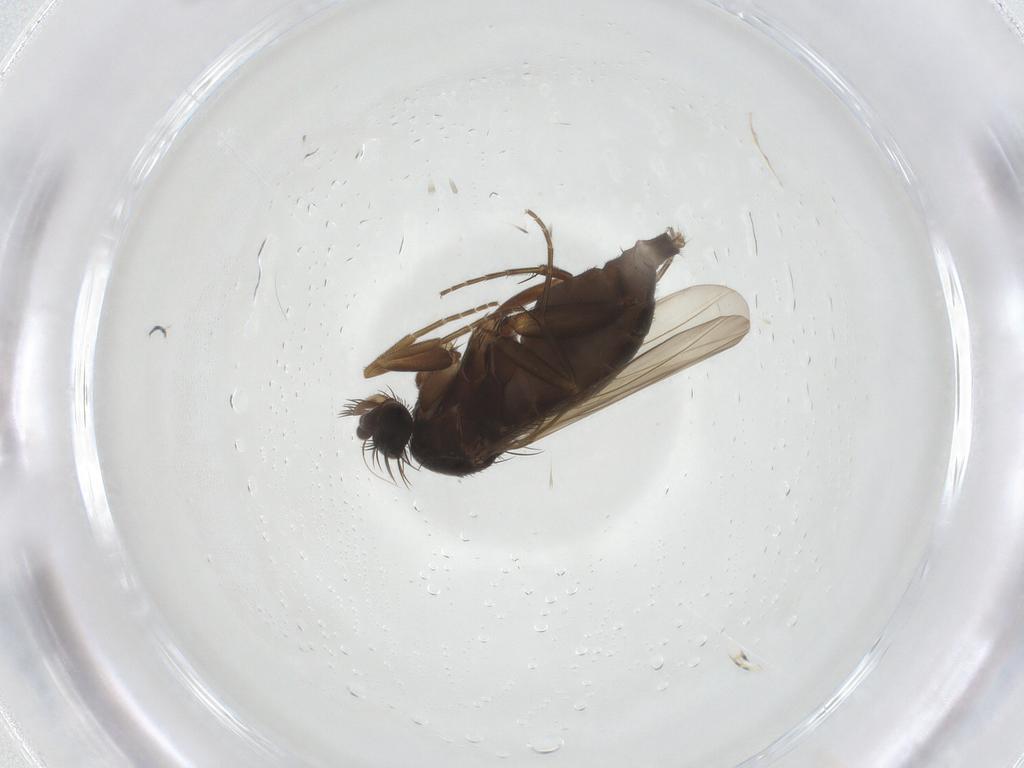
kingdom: Animalia
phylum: Arthropoda
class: Insecta
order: Diptera
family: Phoridae
